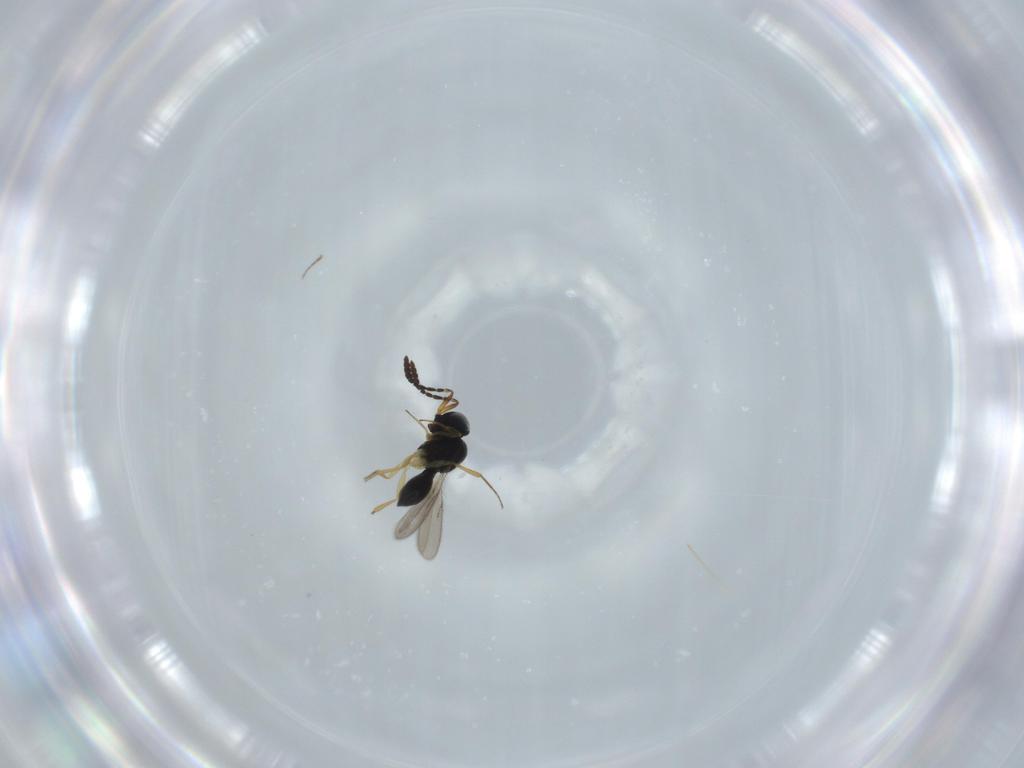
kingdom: Animalia
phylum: Arthropoda
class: Insecta
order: Hymenoptera
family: Scelionidae
